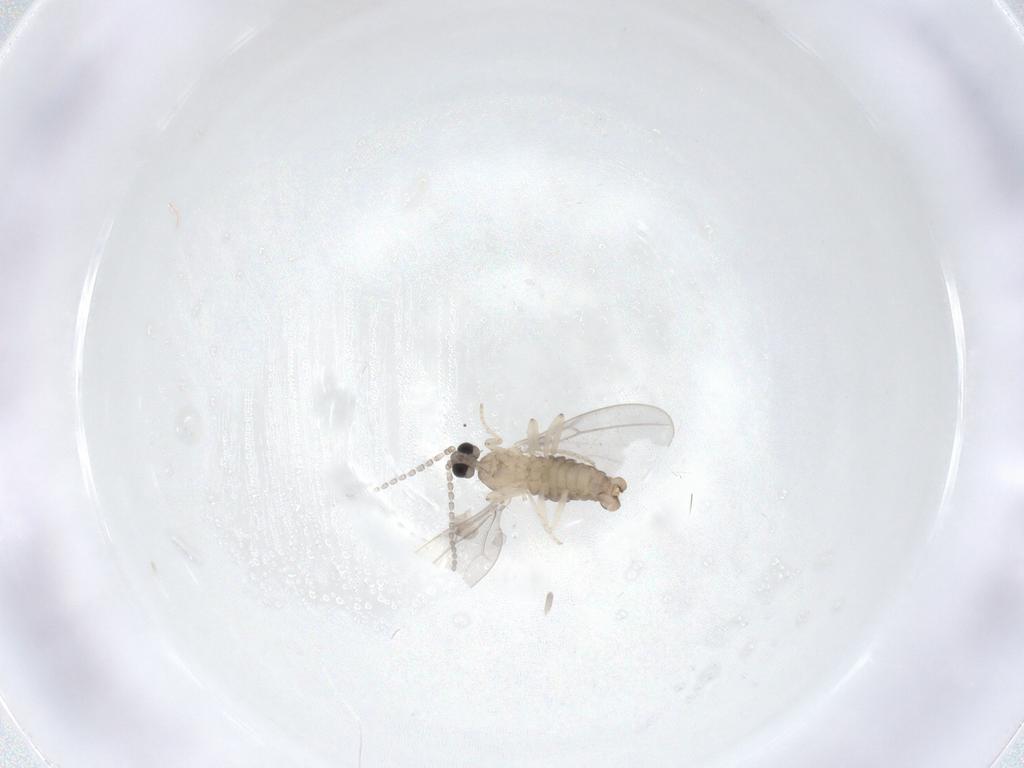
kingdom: Animalia
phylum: Arthropoda
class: Insecta
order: Diptera
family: Cecidomyiidae
